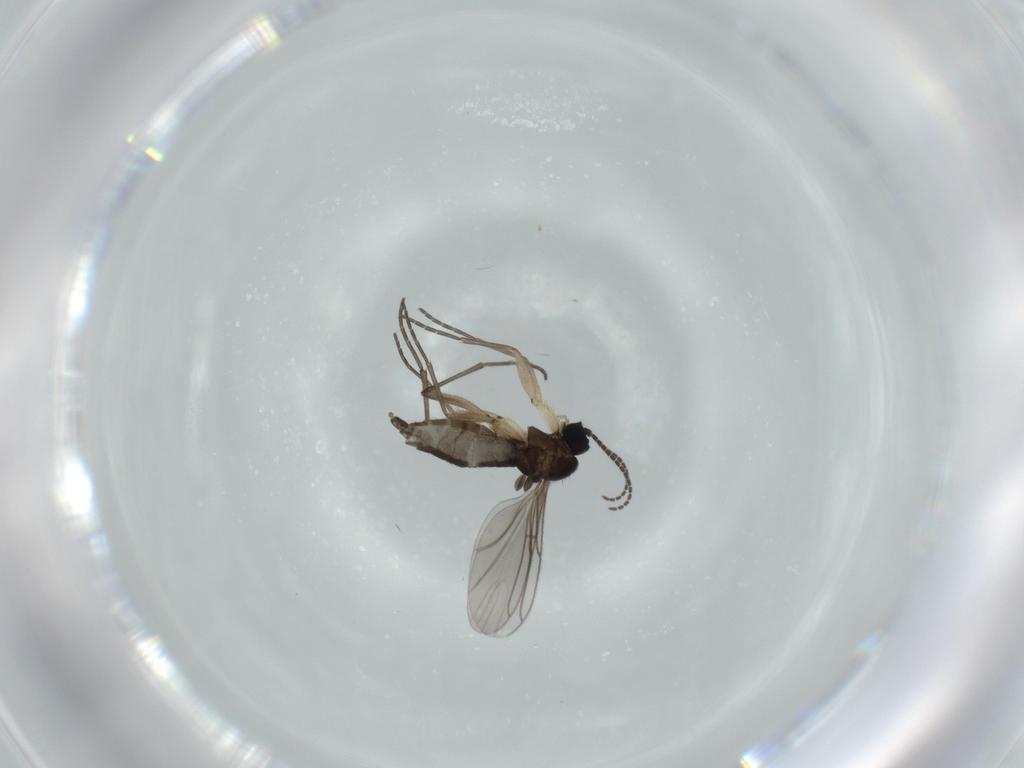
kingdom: Animalia
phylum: Arthropoda
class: Insecta
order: Diptera
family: Sciaridae
